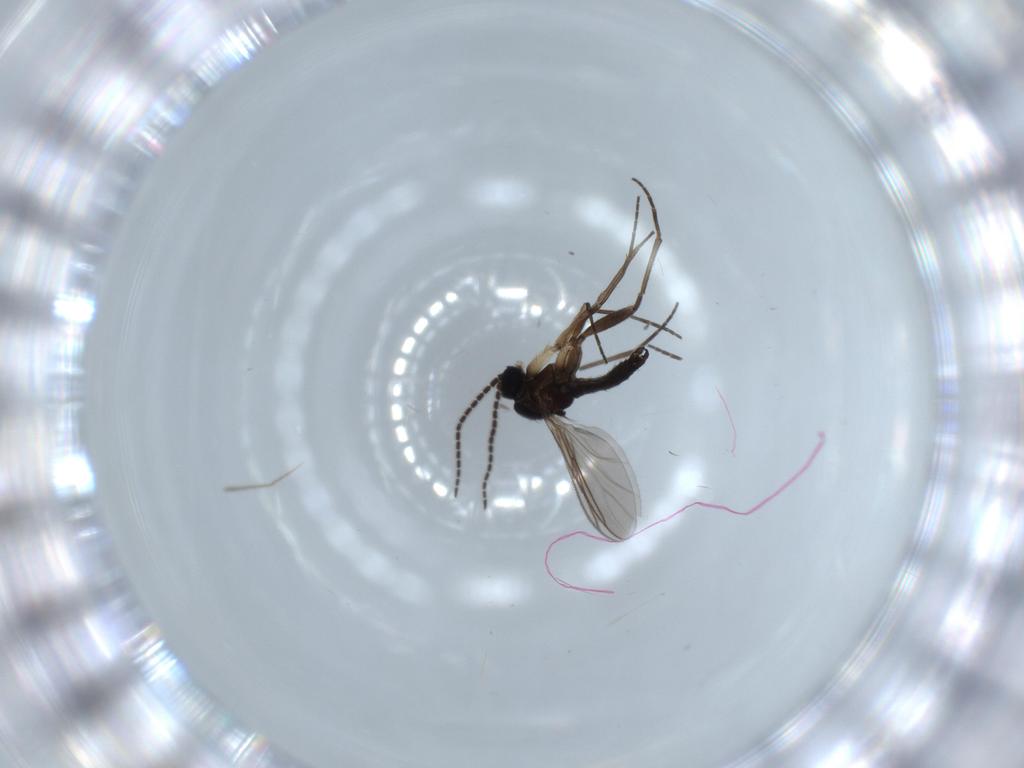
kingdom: Animalia
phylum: Arthropoda
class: Insecta
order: Diptera
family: Sciaridae
